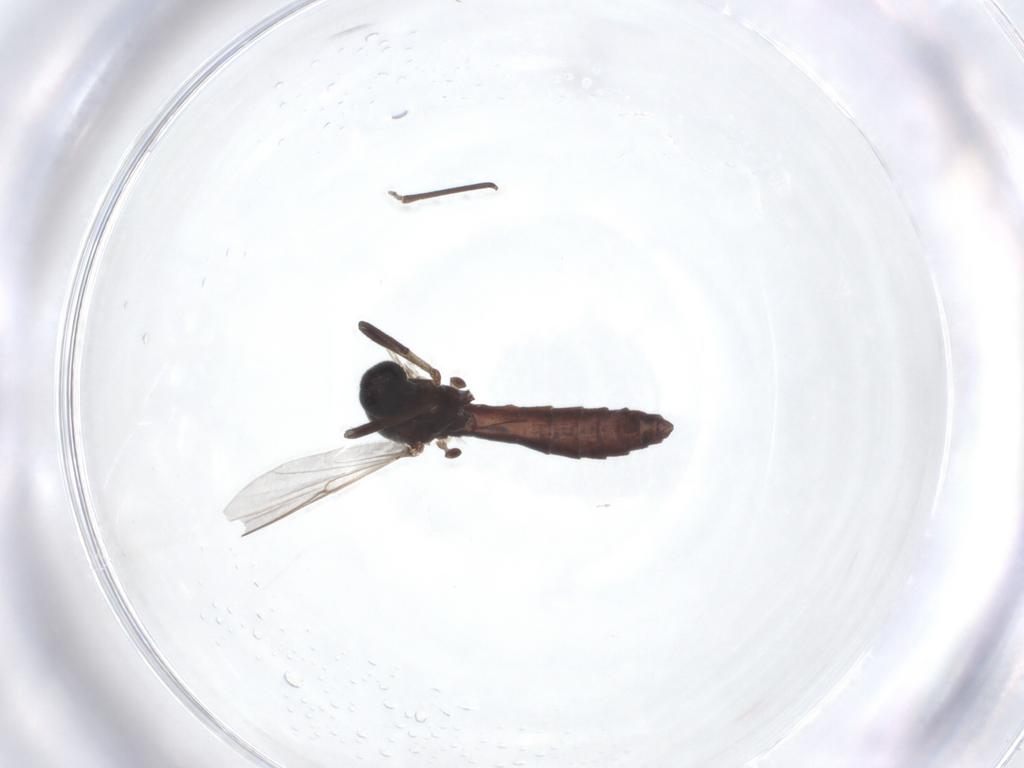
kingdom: Animalia
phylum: Arthropoda
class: Insecta
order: Diptera
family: Ceratopogonidae
